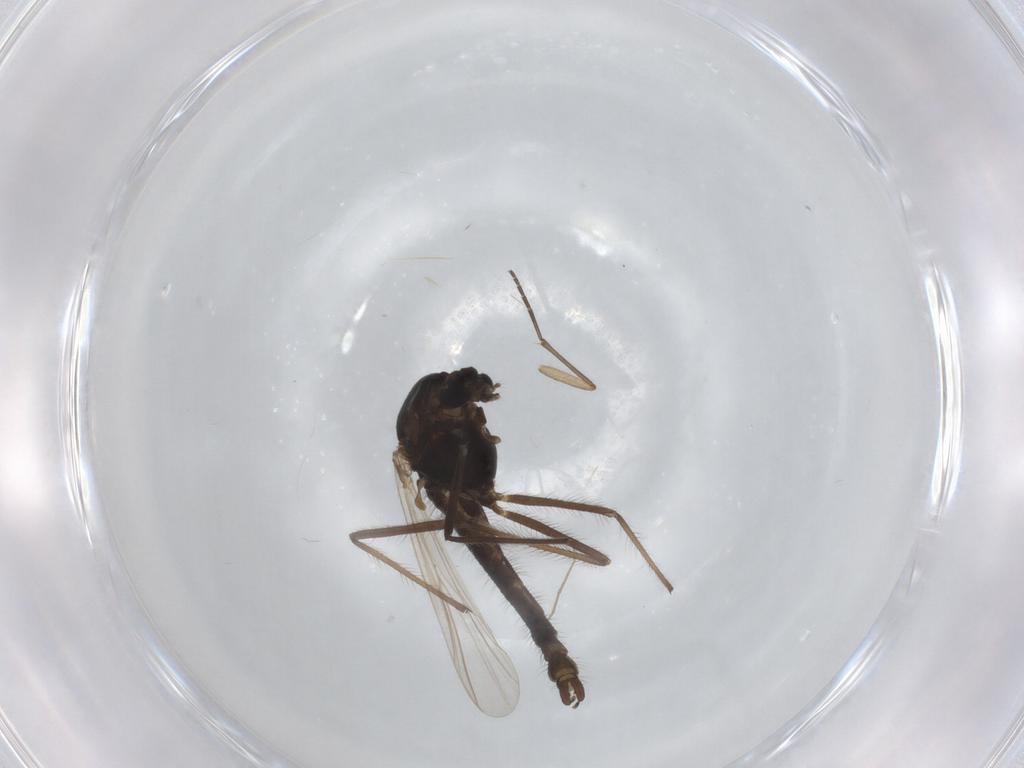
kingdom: Animalia
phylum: Arthropoda
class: Insecta
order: Diptera
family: Chironomidae
